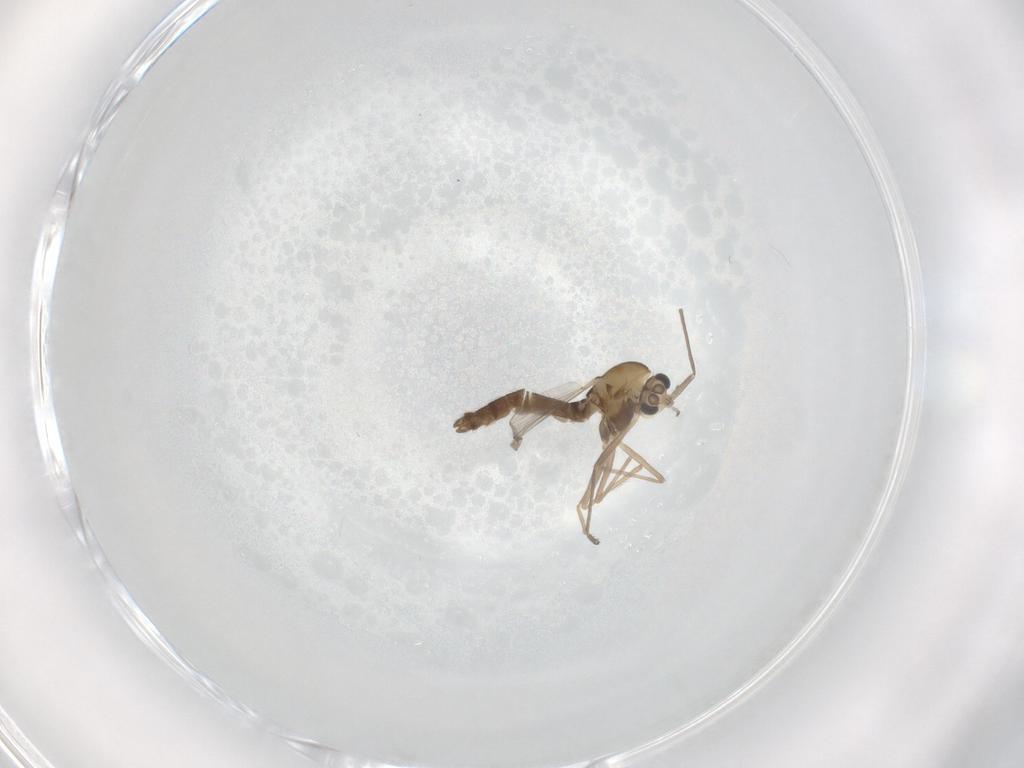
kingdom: Animalia
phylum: Arthropoda
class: Insecta
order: Diptera
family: Chironomidae
